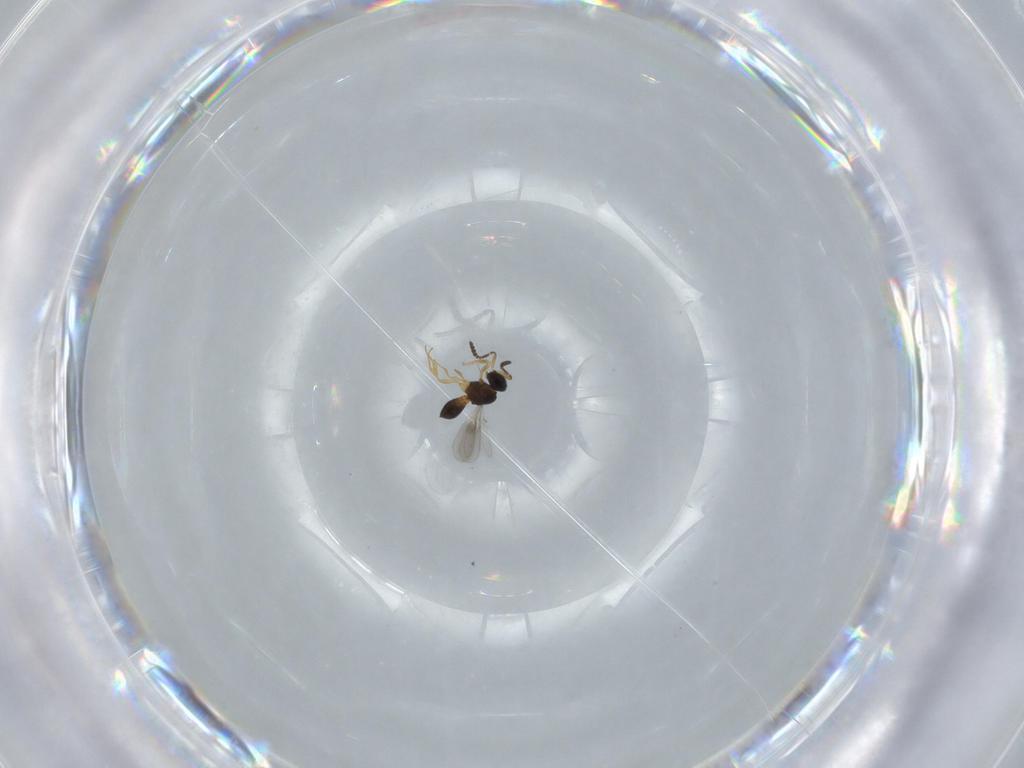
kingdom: Animalia
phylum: Arthropoda
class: Insecta
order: Hymenoptera
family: Scelionidae
